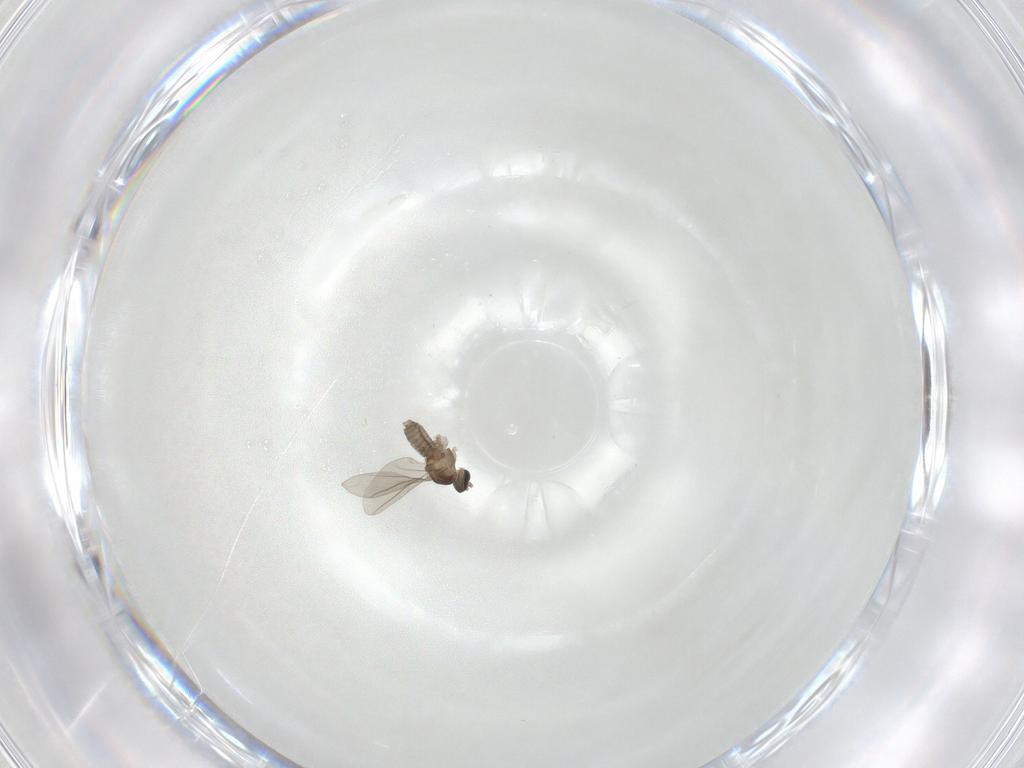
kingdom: Animalia
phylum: Arthropoda
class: Insecta
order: Diptera
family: Cecidomyiidae
